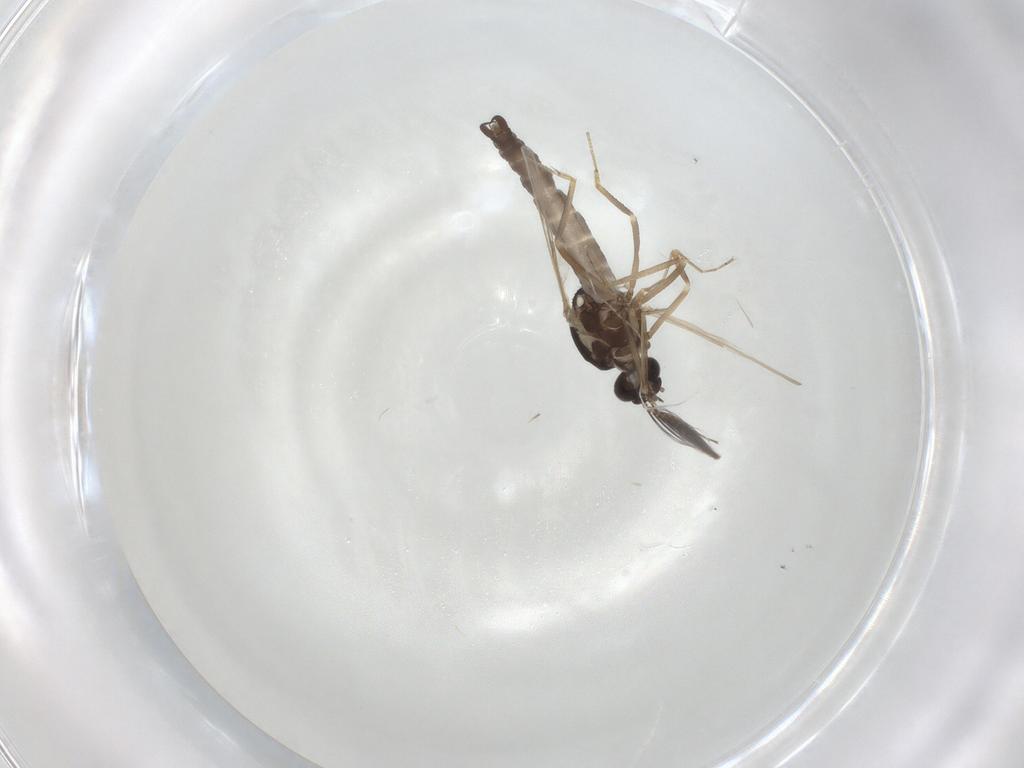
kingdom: Animalia
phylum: Arthropoda
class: Insecta
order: Diptera
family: Ceratopogonidae
